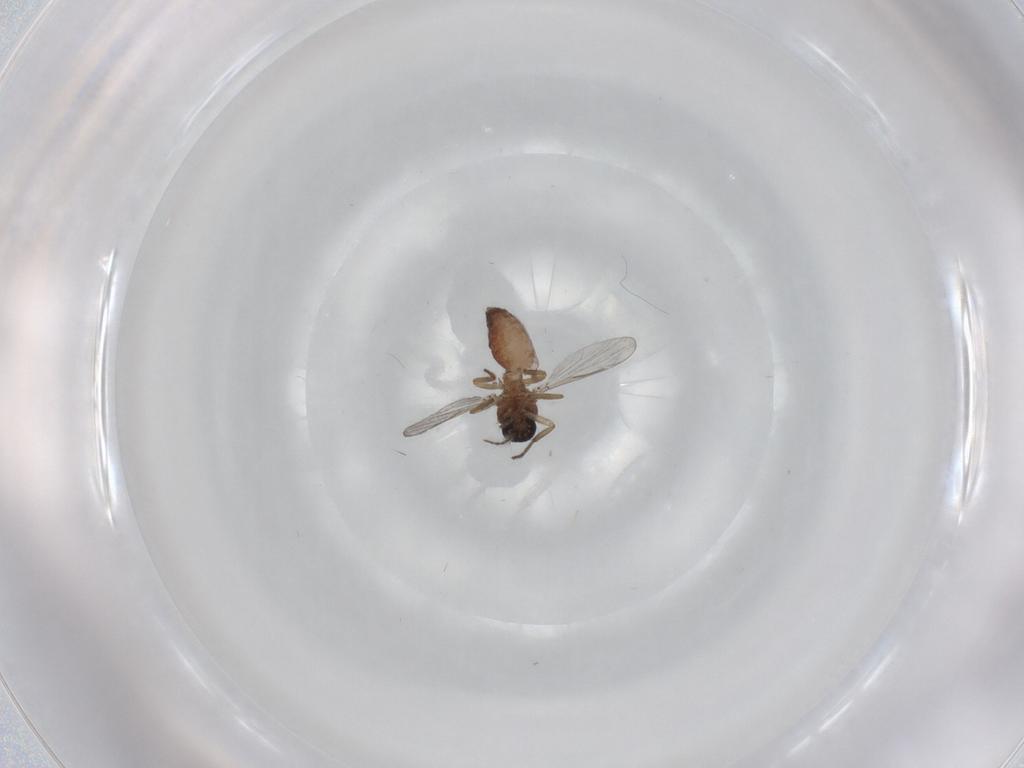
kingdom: Animalia
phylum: Arthropoda
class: Insecta
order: Diptera
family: Ceratopogonidae
